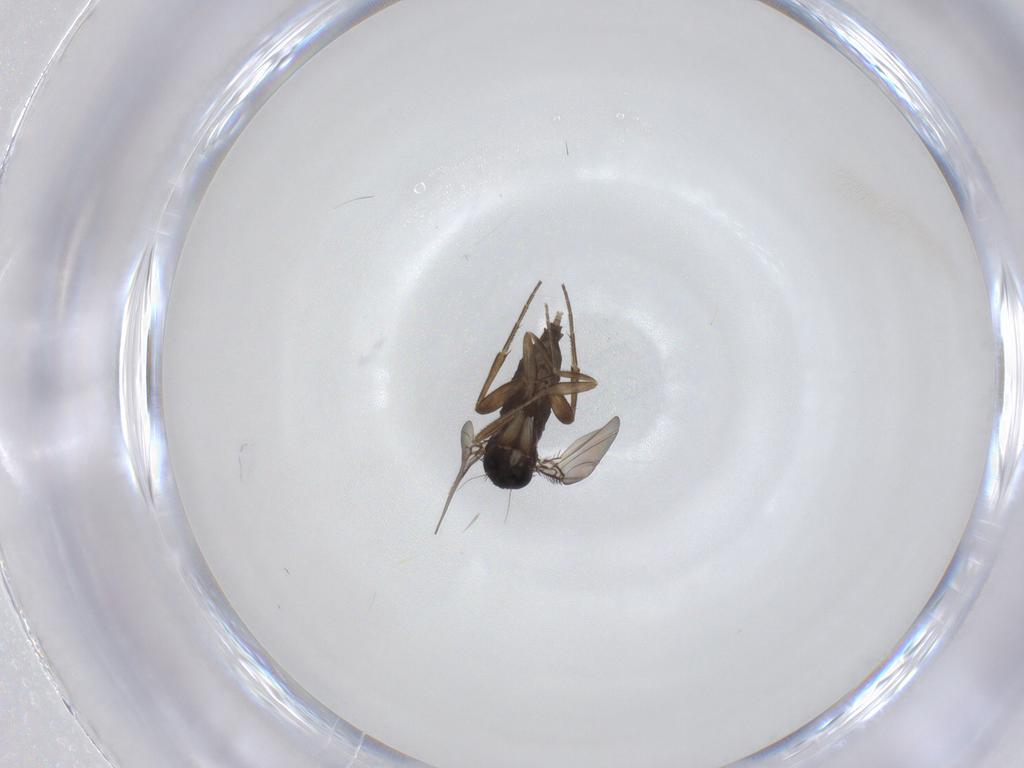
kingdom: Animalia
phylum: Arthropoda
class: Insecta
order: Diptera
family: Phoridae
